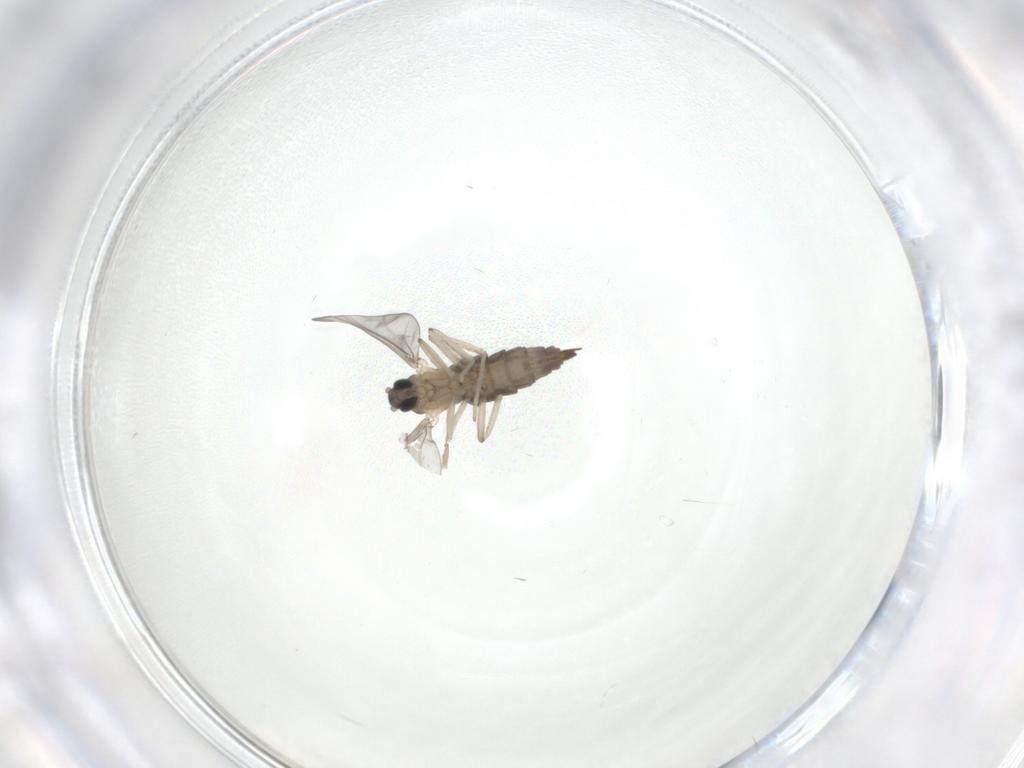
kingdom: Animalia
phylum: Arthropoda
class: Insecta
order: Diptera
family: Cecidomyiidae
